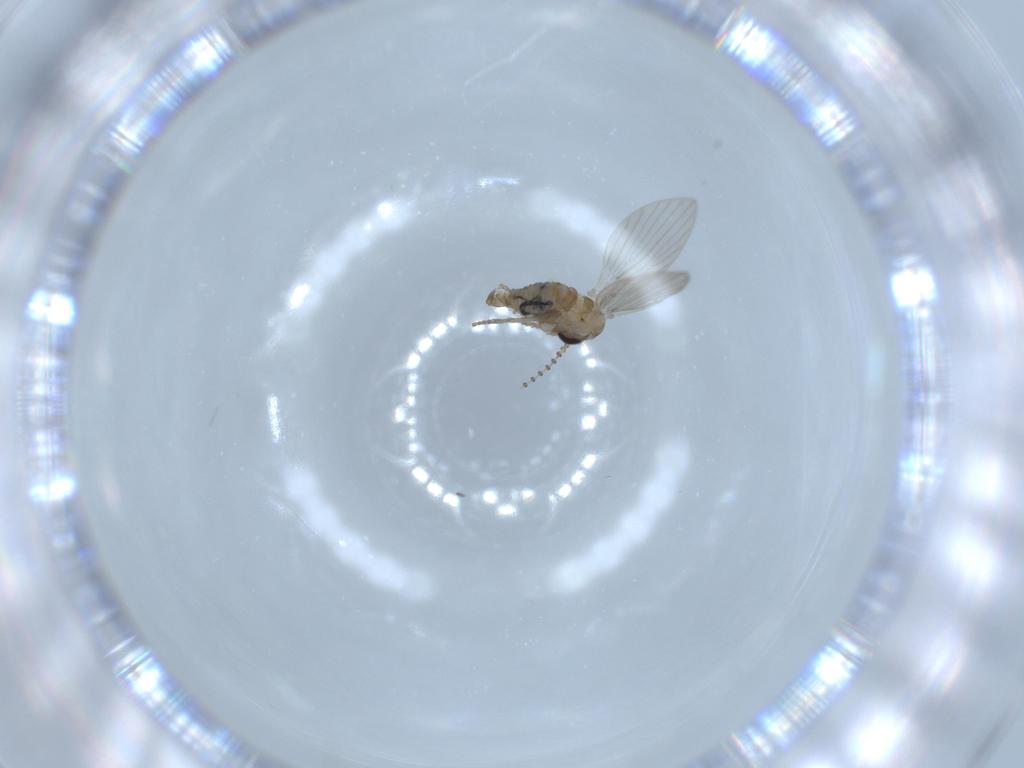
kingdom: Animalia
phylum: Arthropoda
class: Insecta
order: Diptera
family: Psychodidae
